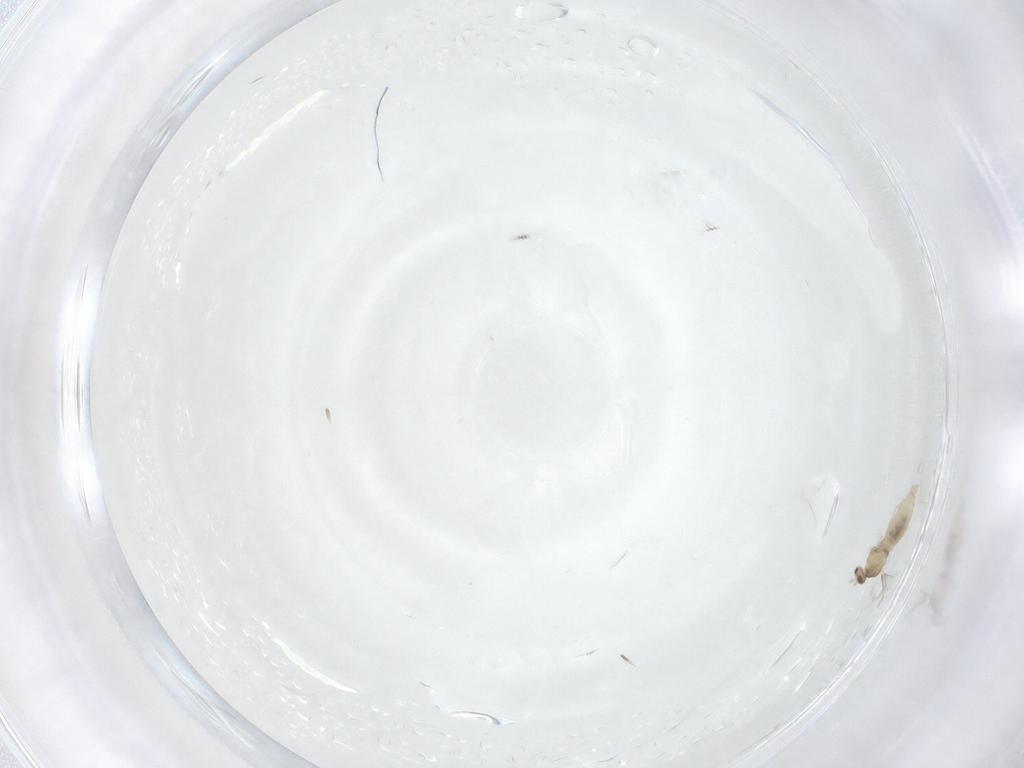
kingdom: Animalia
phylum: Arthropoda
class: Insecta
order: Diptera
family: Cecidomyiidae
